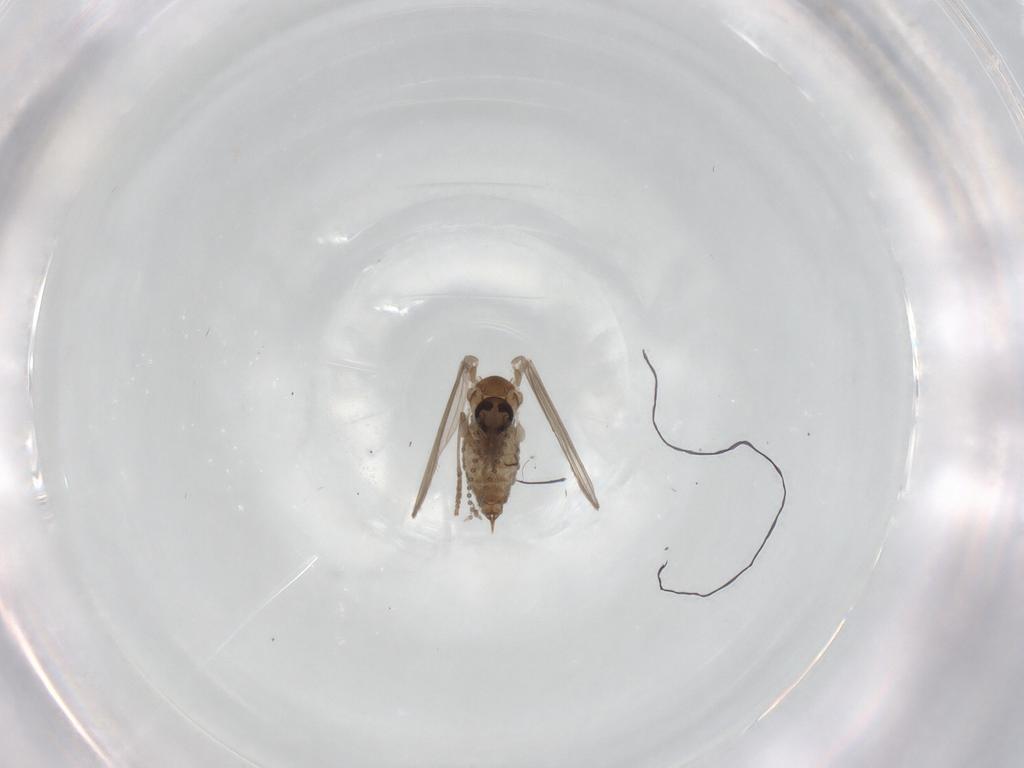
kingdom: Animalia
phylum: Arthropoda
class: Insecta
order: Diptera
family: Psychodidae
